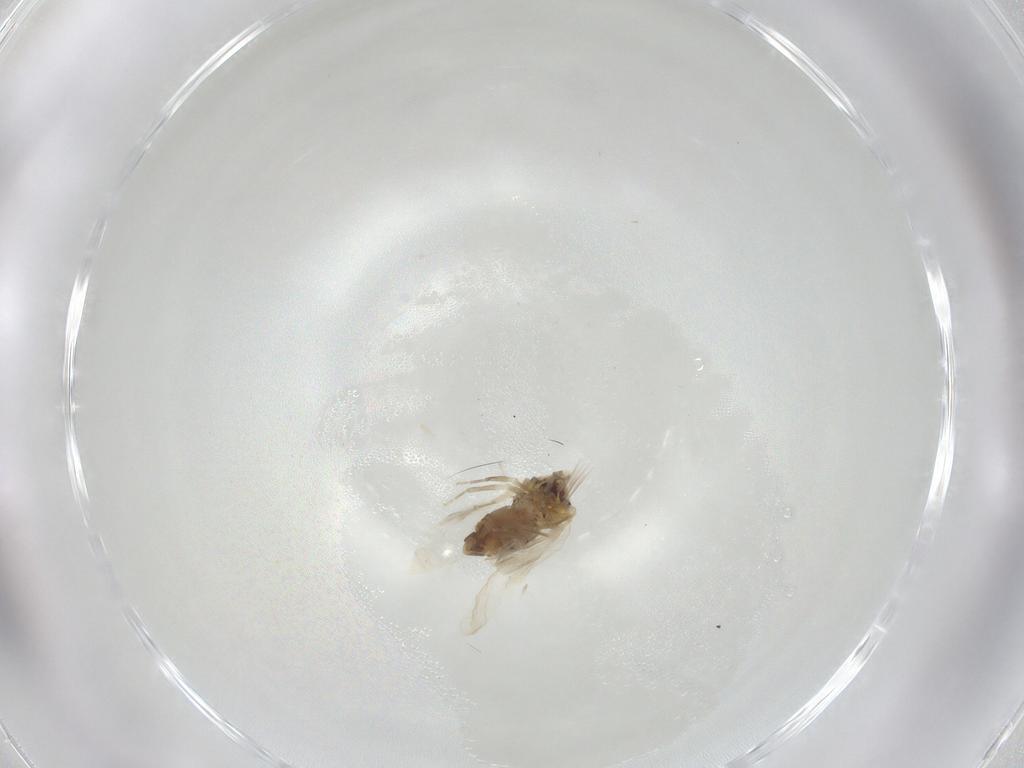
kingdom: Animalia
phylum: Arthropoda
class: Insecta
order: Hemiptera
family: Aleyrodidae
